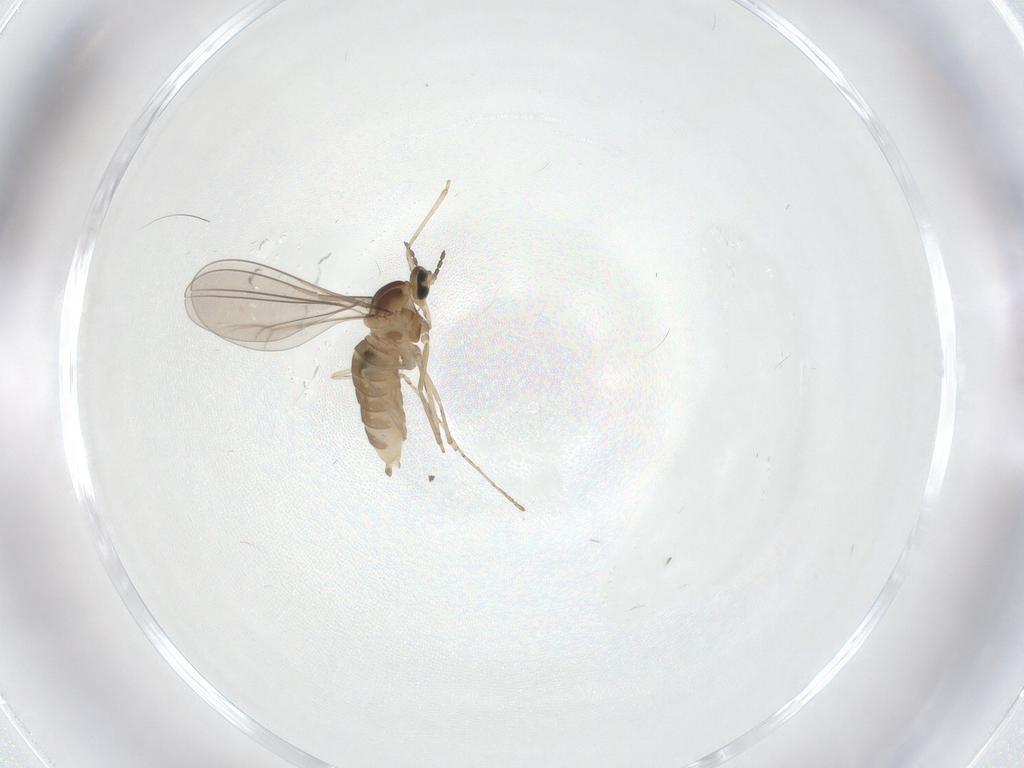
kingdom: Animalia
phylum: Arthropoda
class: Insecta
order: Diptera
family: Cecidomyiidae
